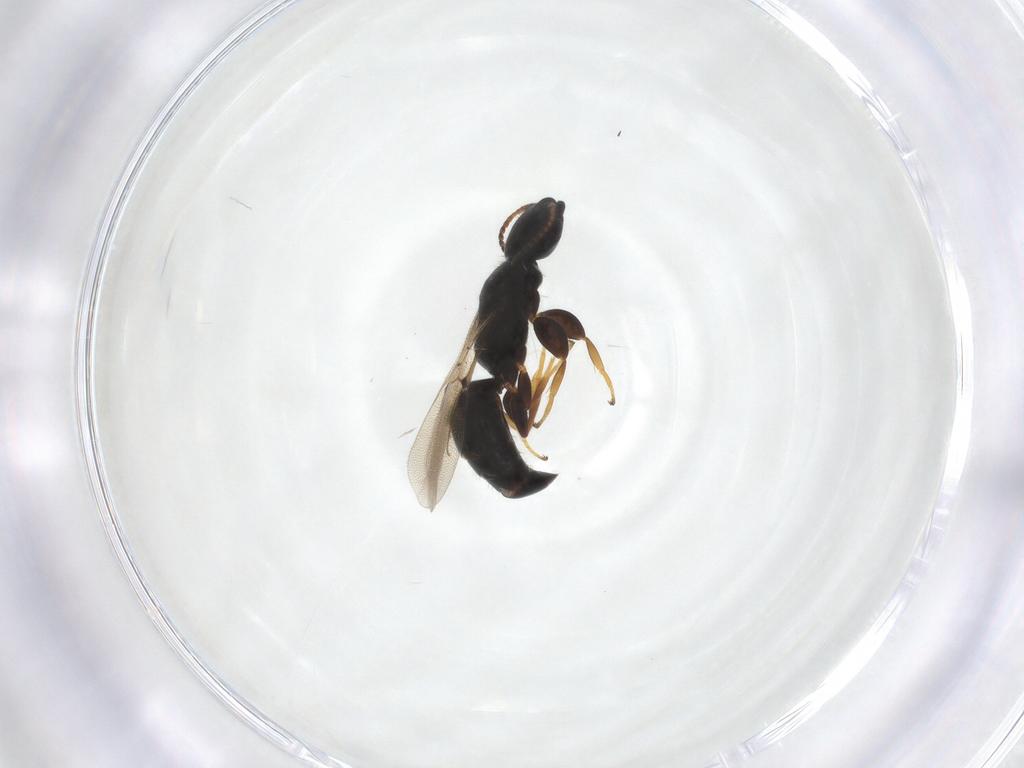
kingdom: Animalia
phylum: Arthropoda
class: Insecta
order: Hymenoptera
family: Bethylidae
